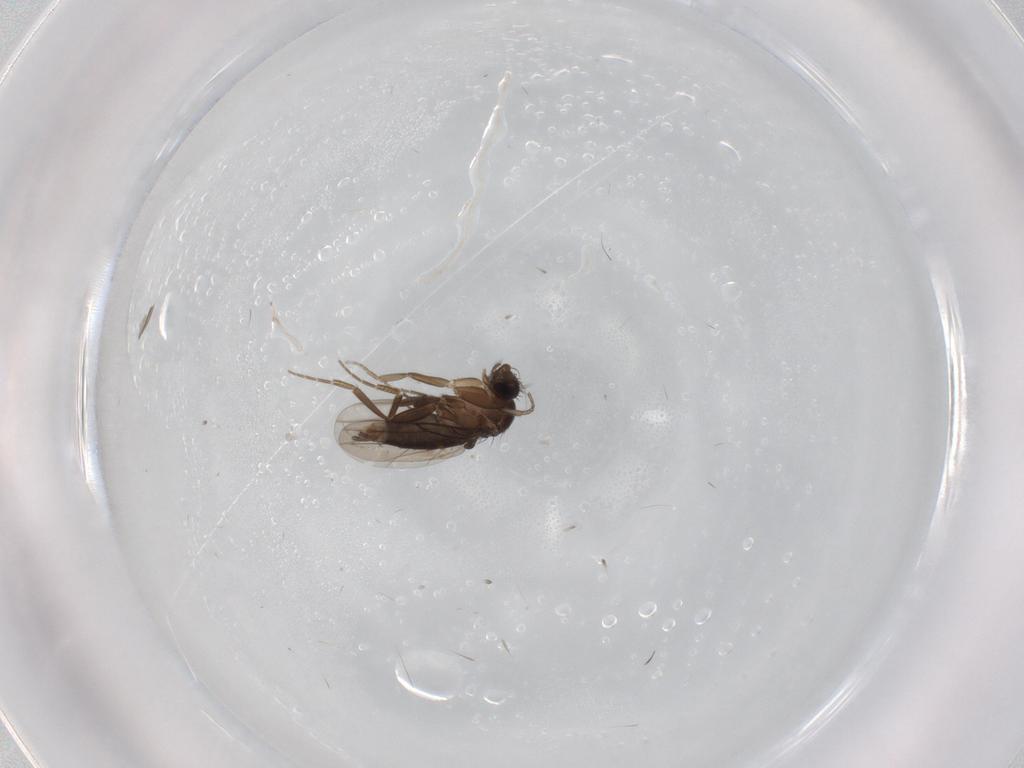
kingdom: Animalia
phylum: Arthropoda
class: Insecta
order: Diptera
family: Phoridae
